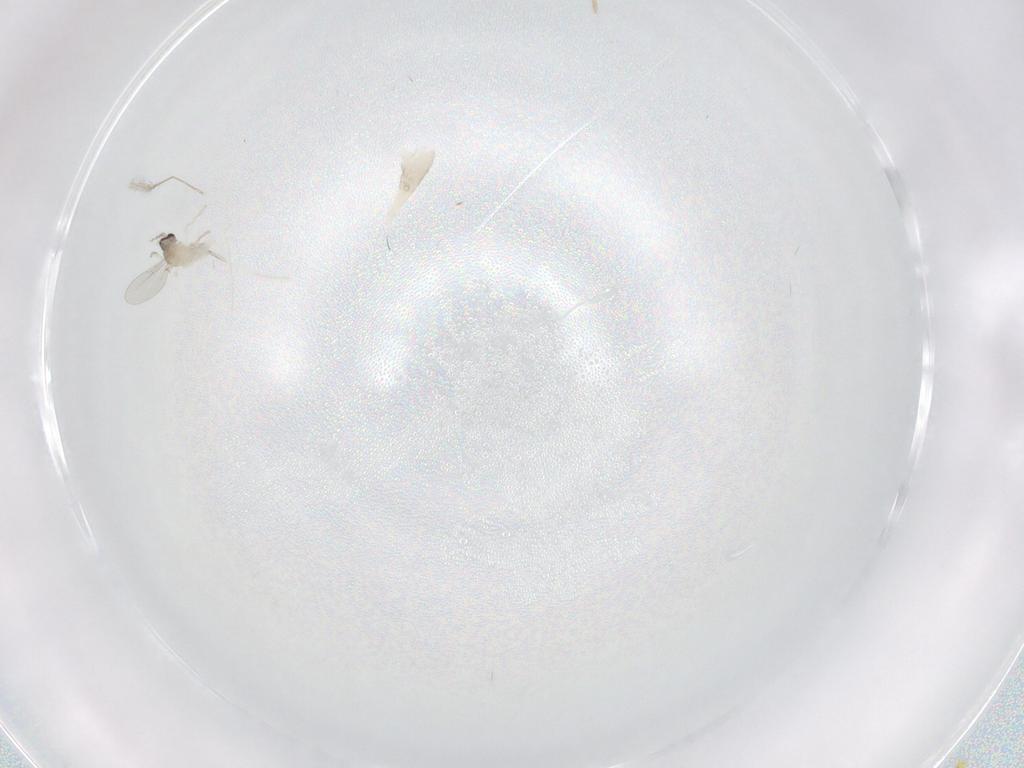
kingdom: Animalia
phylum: Arthropoda
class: Insecta
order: Diptera
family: Cecidomyiidae
